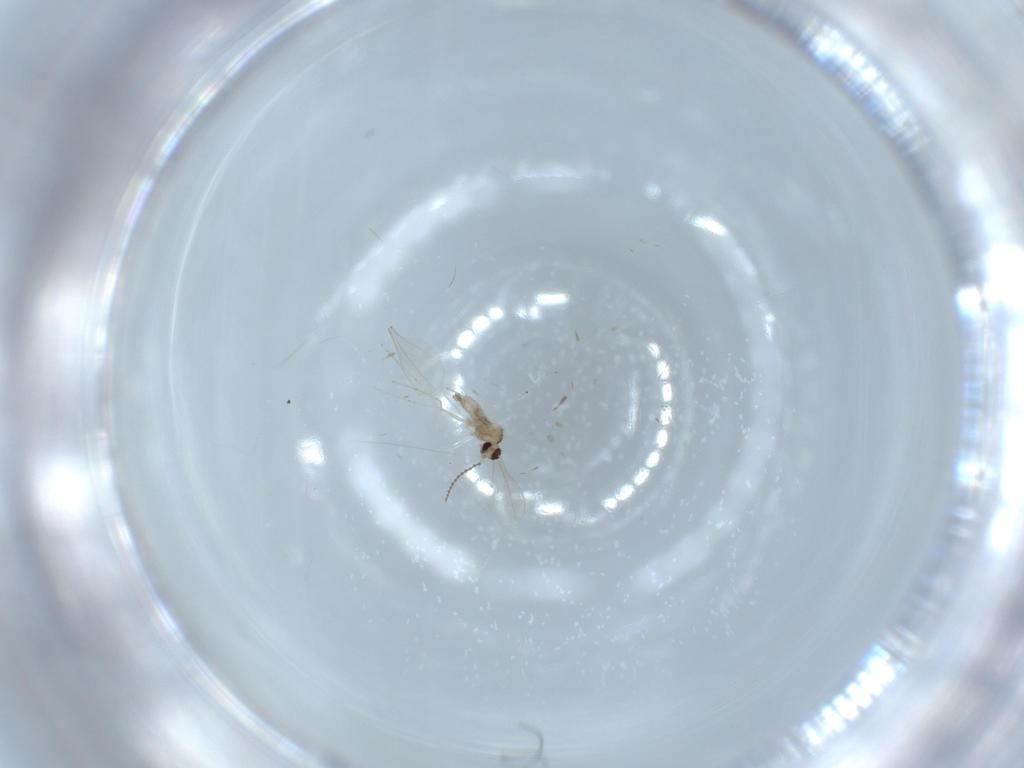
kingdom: Animalia
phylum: Arthropoda
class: Insecta
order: Diptera
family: Cecidomyiidae
